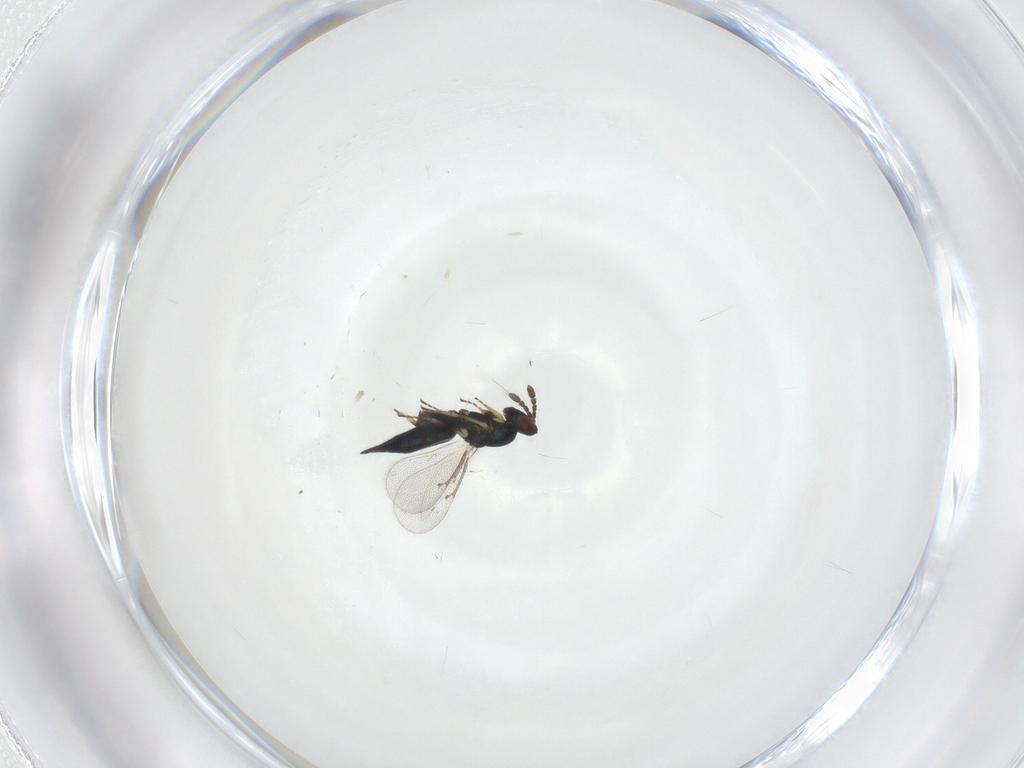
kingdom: Animalia
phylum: Arthropoda
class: Insecta
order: Hymenoptera
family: Eulophidae
